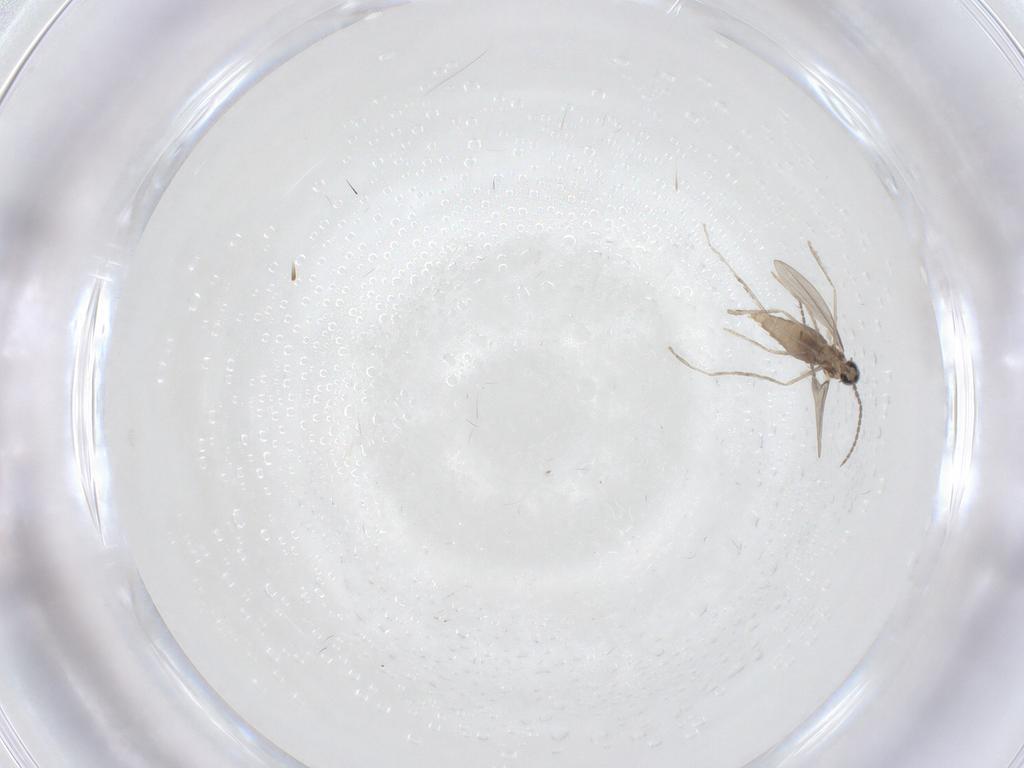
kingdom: Animalia
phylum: Arthropoda
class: Insecta
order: Diptera
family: Cecidomyiidae
